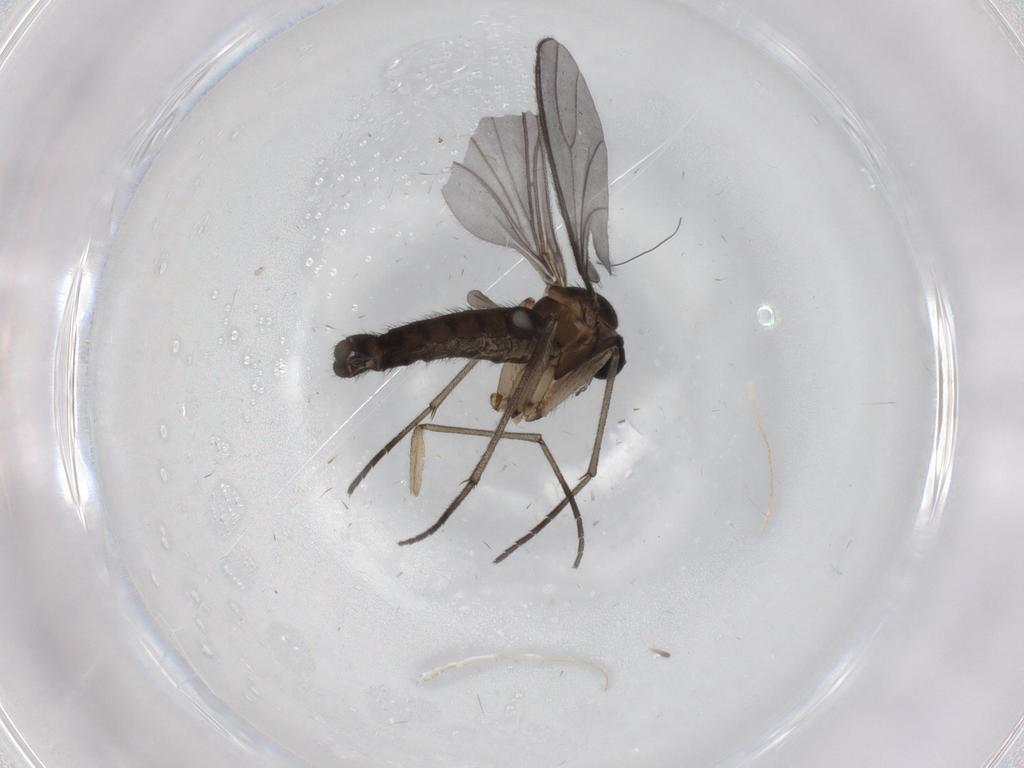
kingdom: Animalia
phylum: Arthropoda
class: Insecta
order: Diptera
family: Sciaridae
